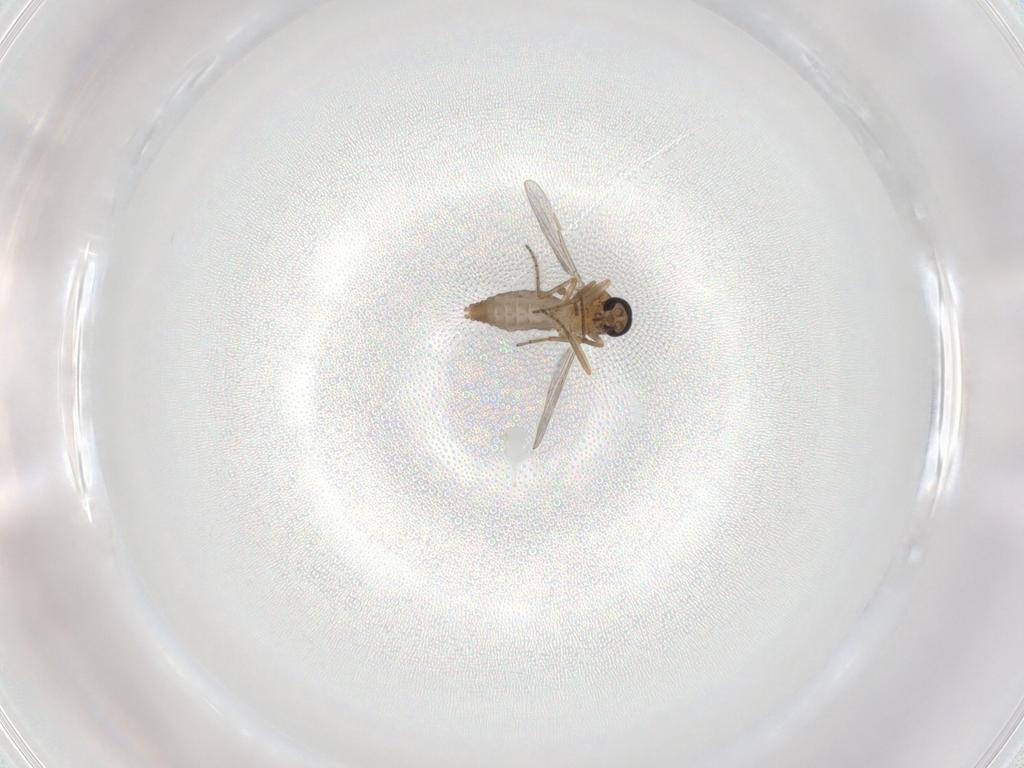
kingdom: Animalia
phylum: Arthropoda
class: Insecta
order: Diptera
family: Ceratopogonidae
